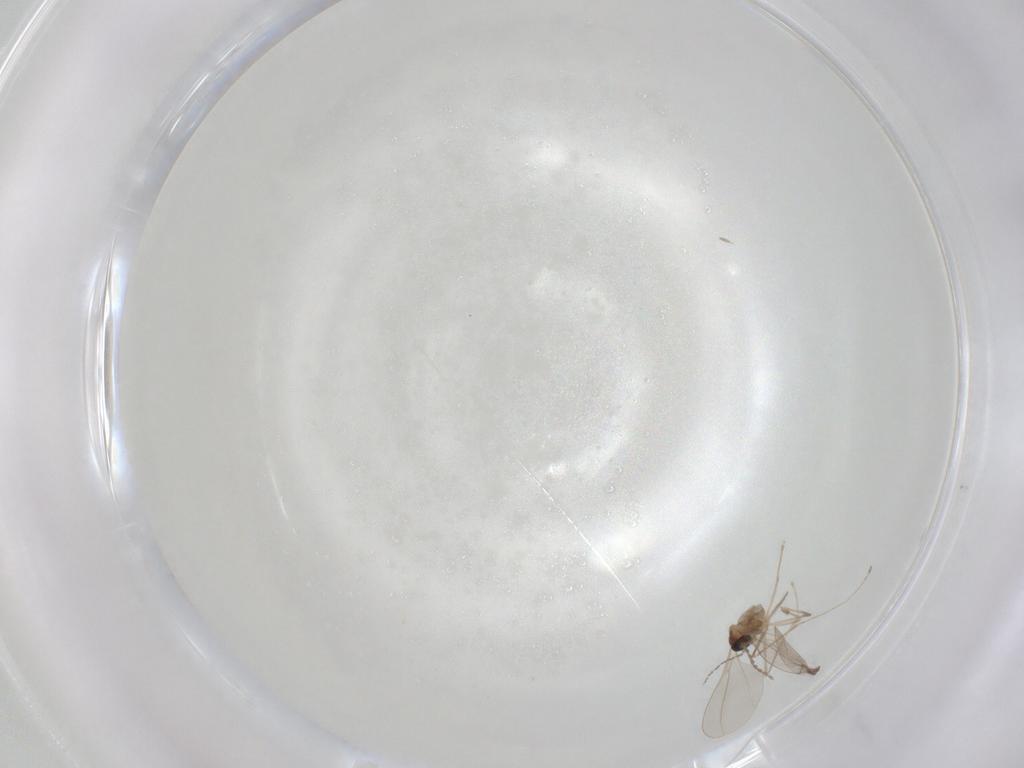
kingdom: Animalia
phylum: Arthropoda
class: Insecta
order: Diptera
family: Cecidomyiidae
